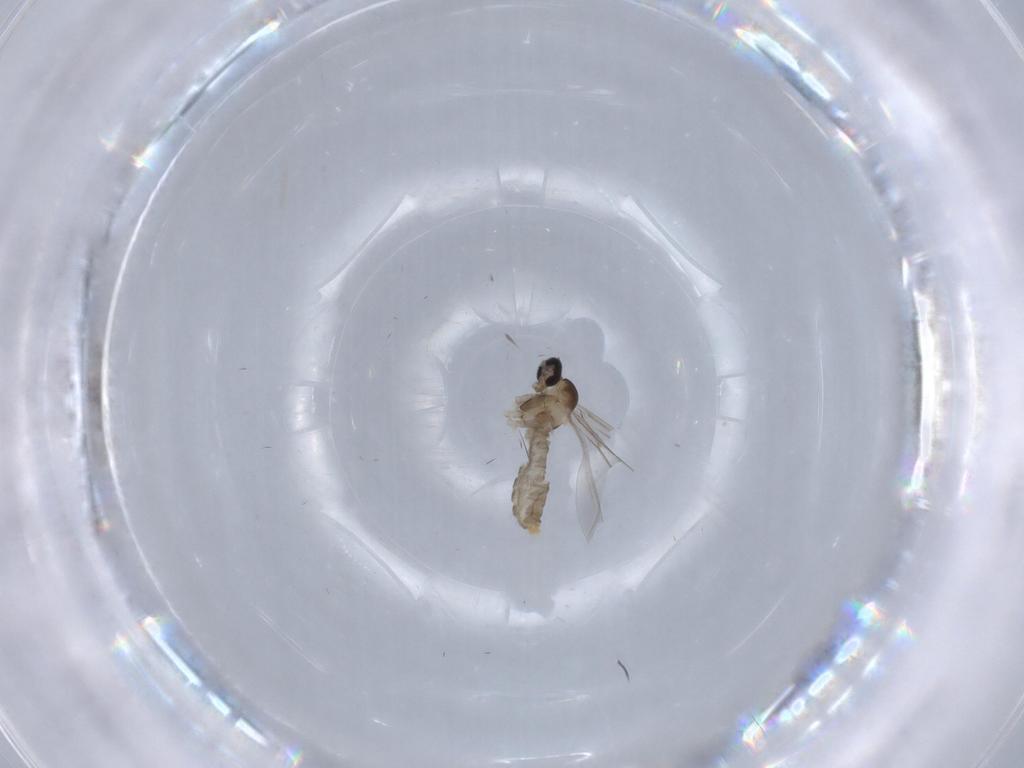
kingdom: Animalia
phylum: Arthropoda
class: Insecta
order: Diptera
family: Cecidomyiidae
